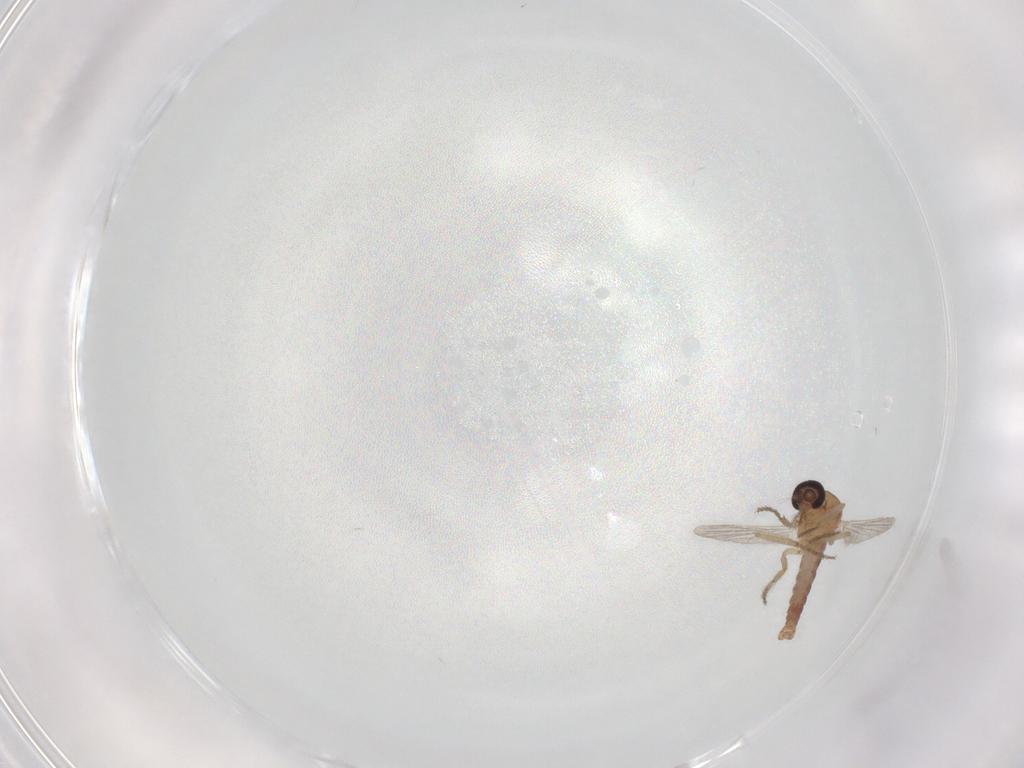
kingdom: Animalia
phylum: Arthropoda
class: Insecta
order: Diptera
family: Ceratopogonidae
